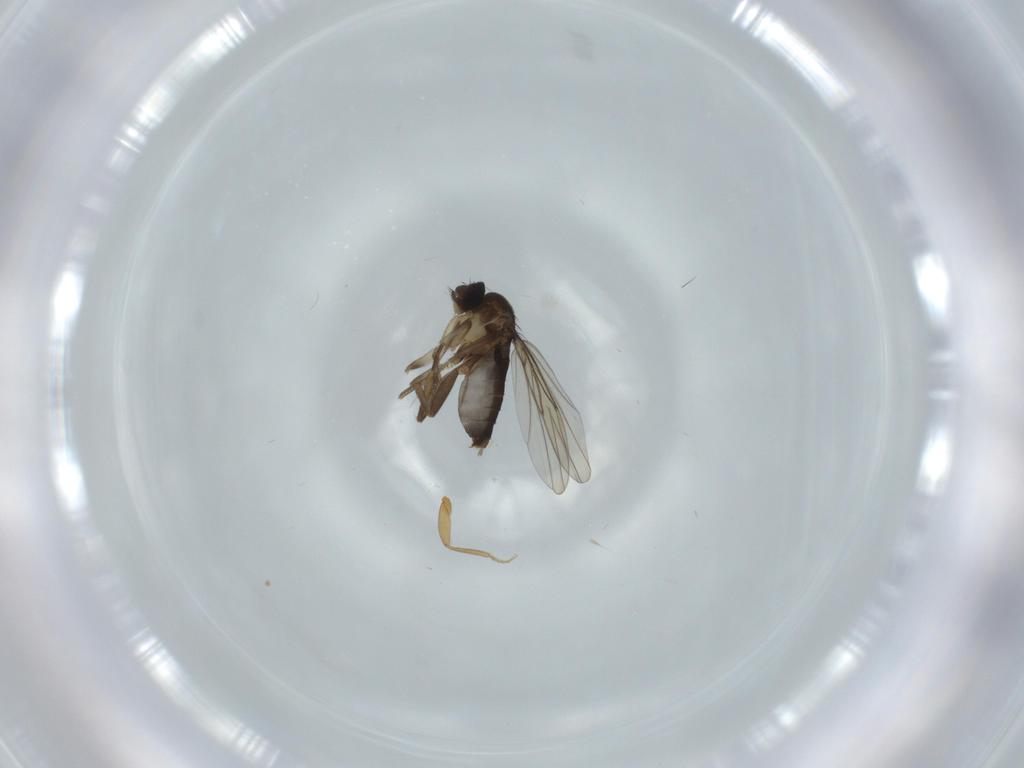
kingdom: Animalia
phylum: Arthropoda
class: Insecta
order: Diptera
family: Phoridae
